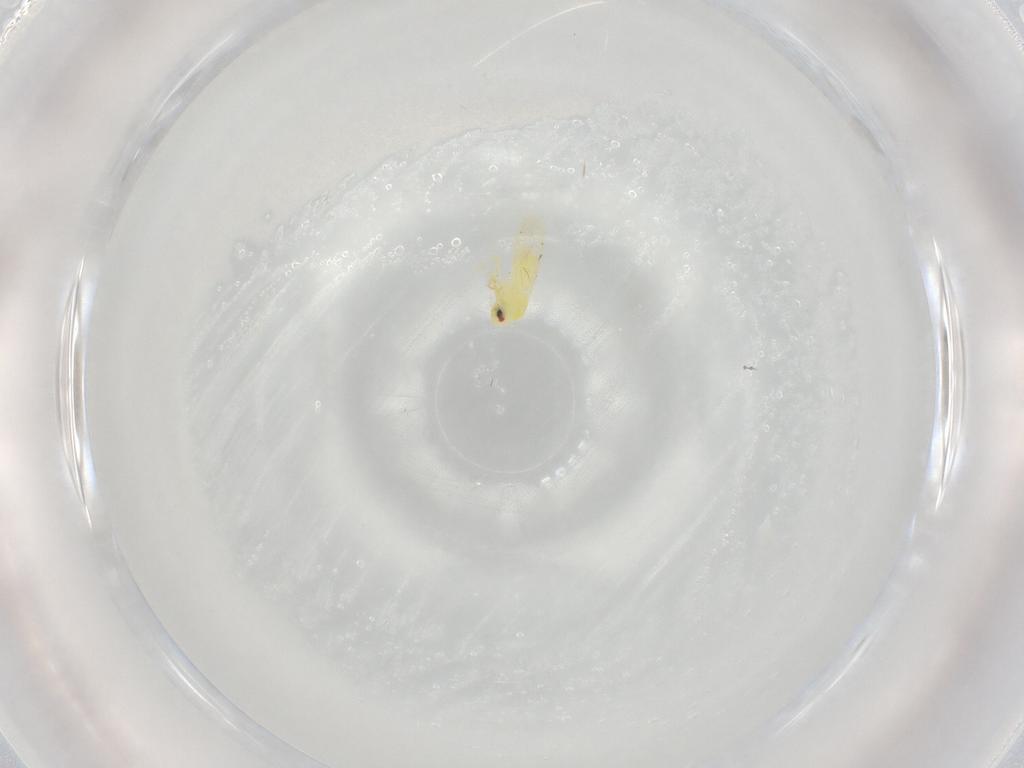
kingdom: Animalia
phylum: Arthropoda
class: Insecta
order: Hemiptera
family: Aleyrodidae
